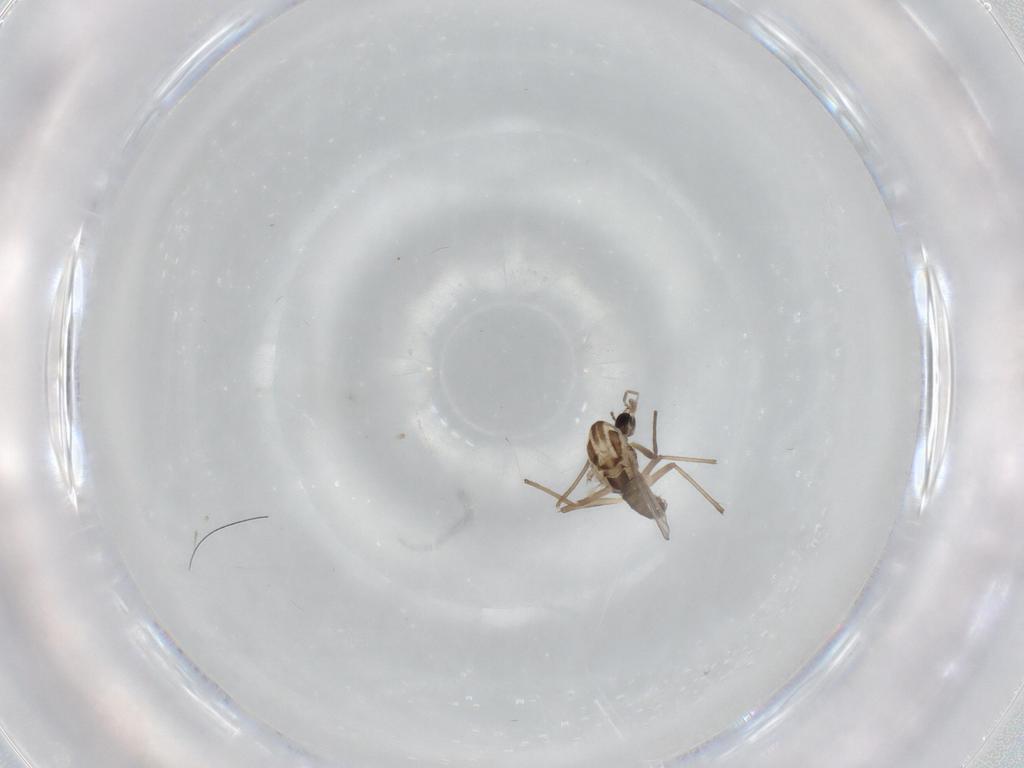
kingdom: Animalia
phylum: Arthropoda
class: Insecta
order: Diptera
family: Chironomidae
